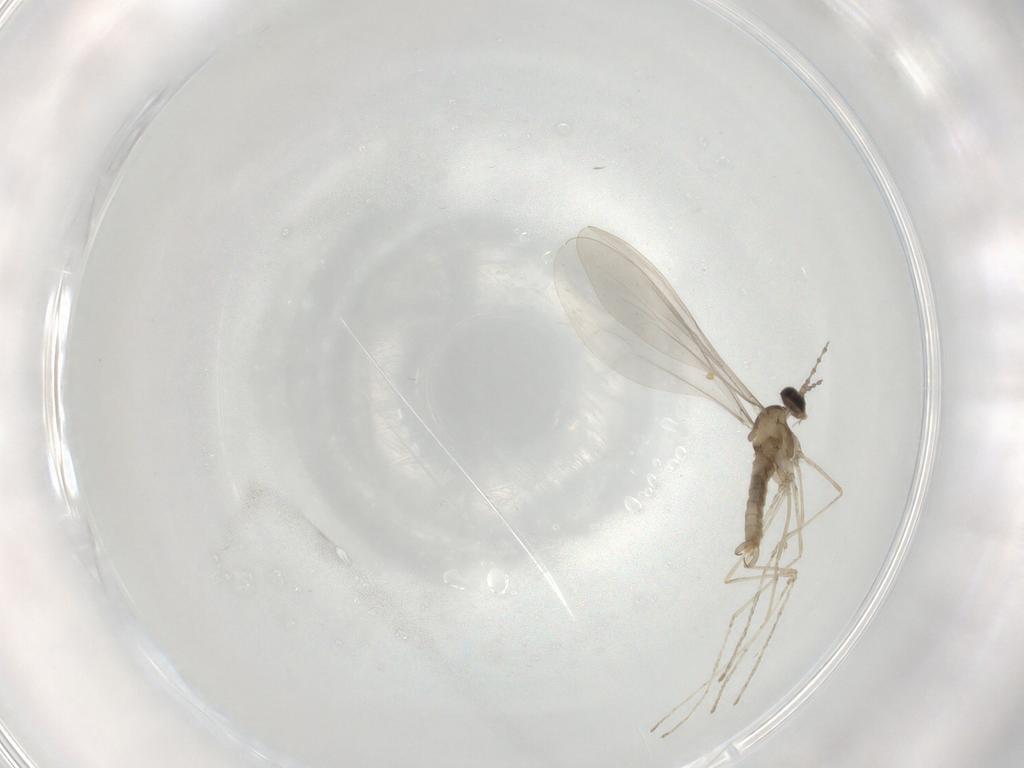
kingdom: Animalia
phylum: Arthropoda
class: Insecta
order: Diptera
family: Cecidomyiidae
